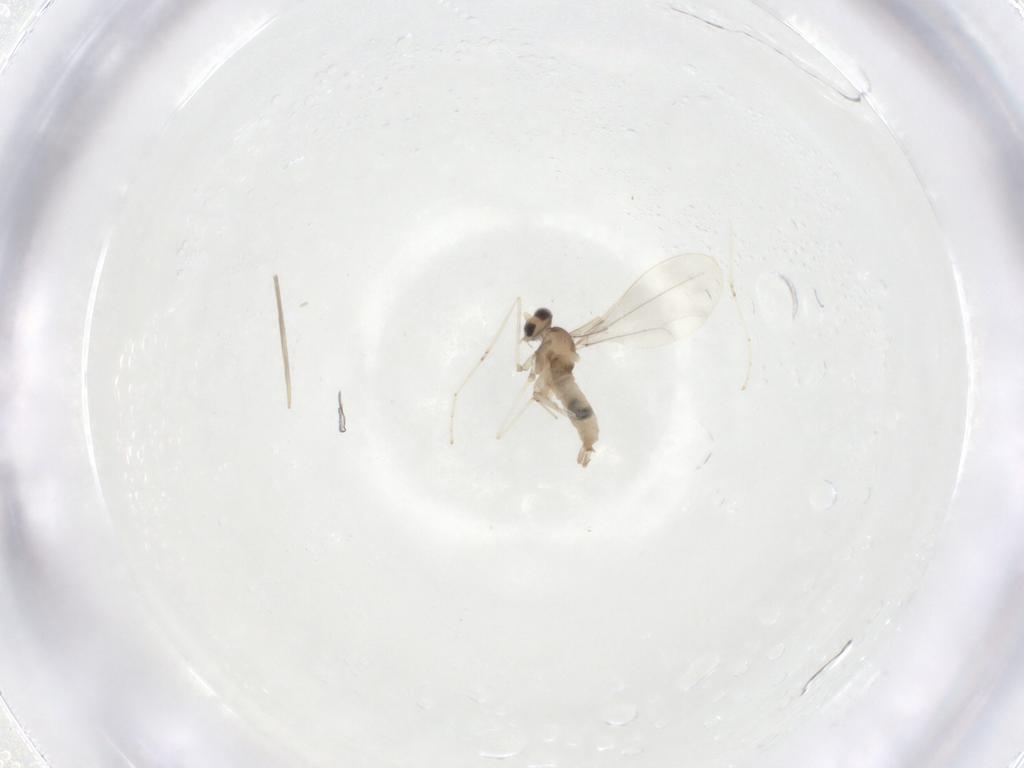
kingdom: Animalia
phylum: Arthropoda
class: Insecta
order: Diptera
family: Cecidomyiidae
